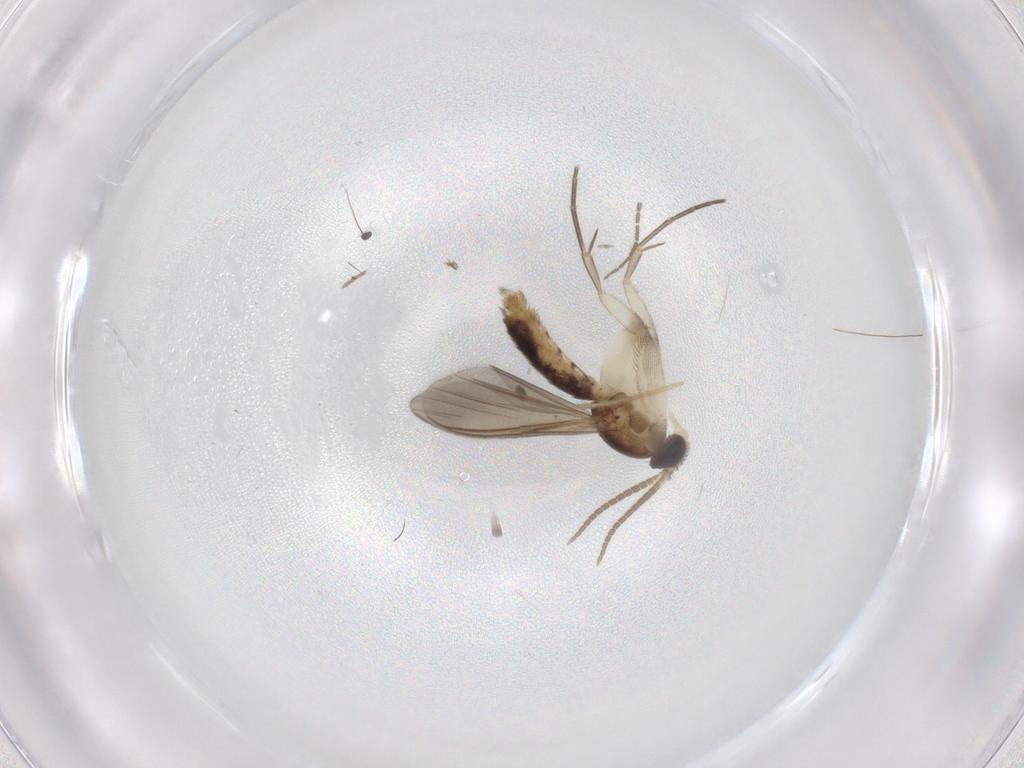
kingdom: Animalia
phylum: Arthropoda
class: Insecta
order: Diptera
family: Mycetophilidae
